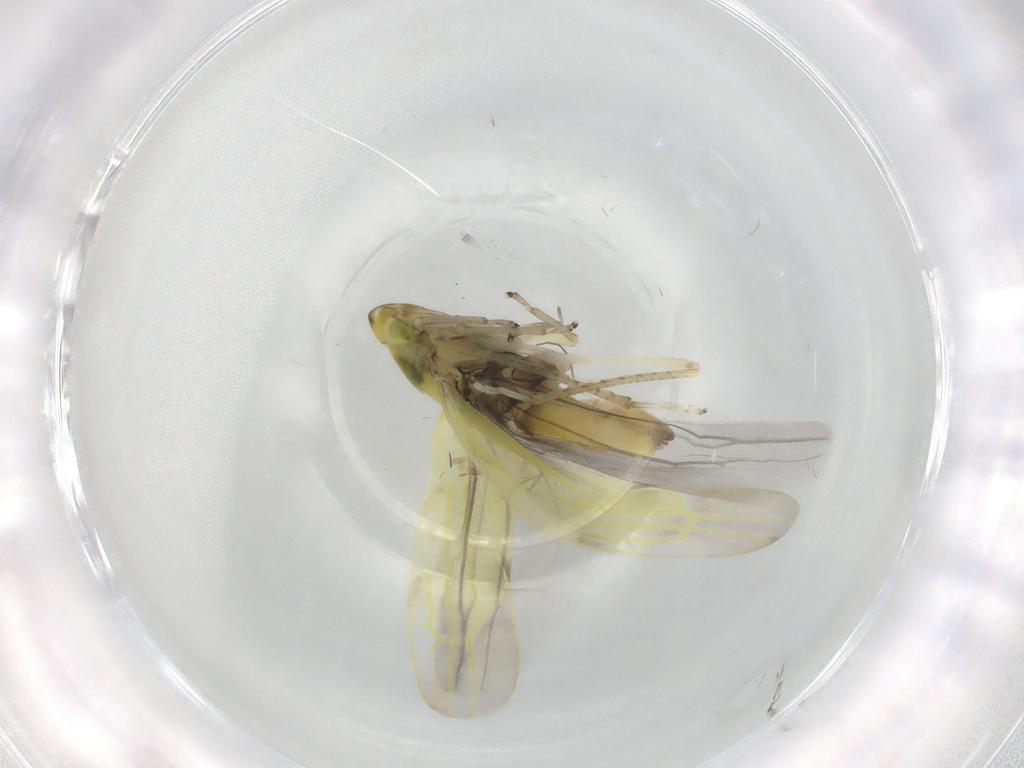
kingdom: Animalia
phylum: Arthropoda
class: Insecta
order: Hemiptera
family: Cicadellidae
